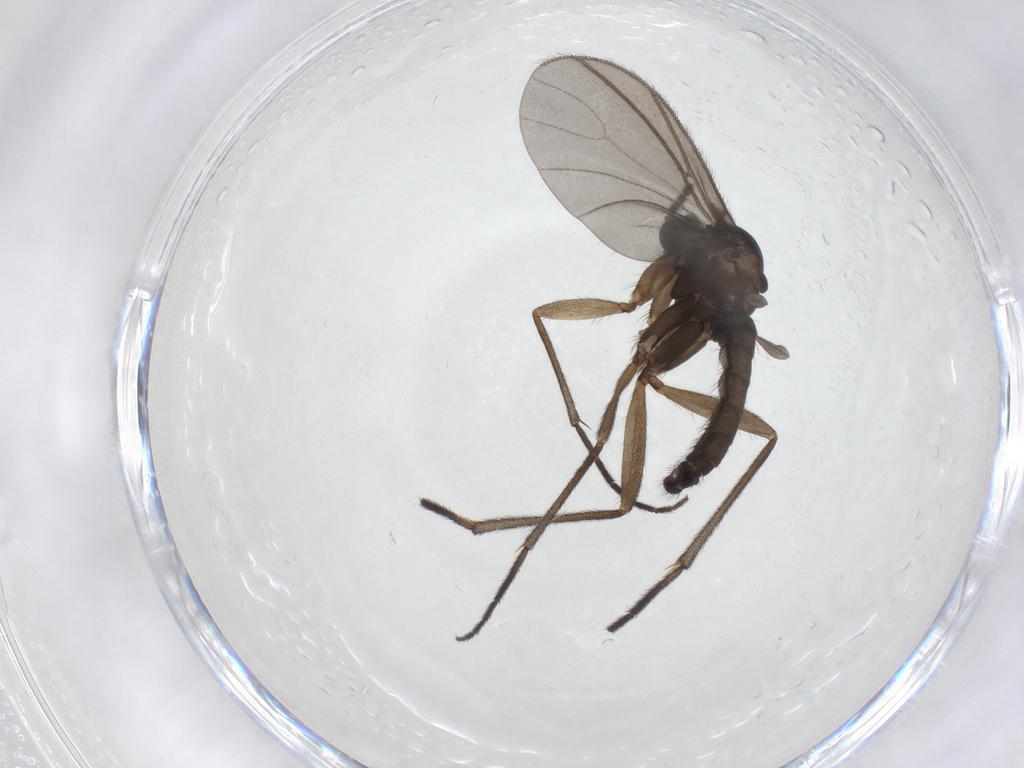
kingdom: Animalia
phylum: Arthropoda
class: Insecta
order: Diptera
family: Sciaridae
